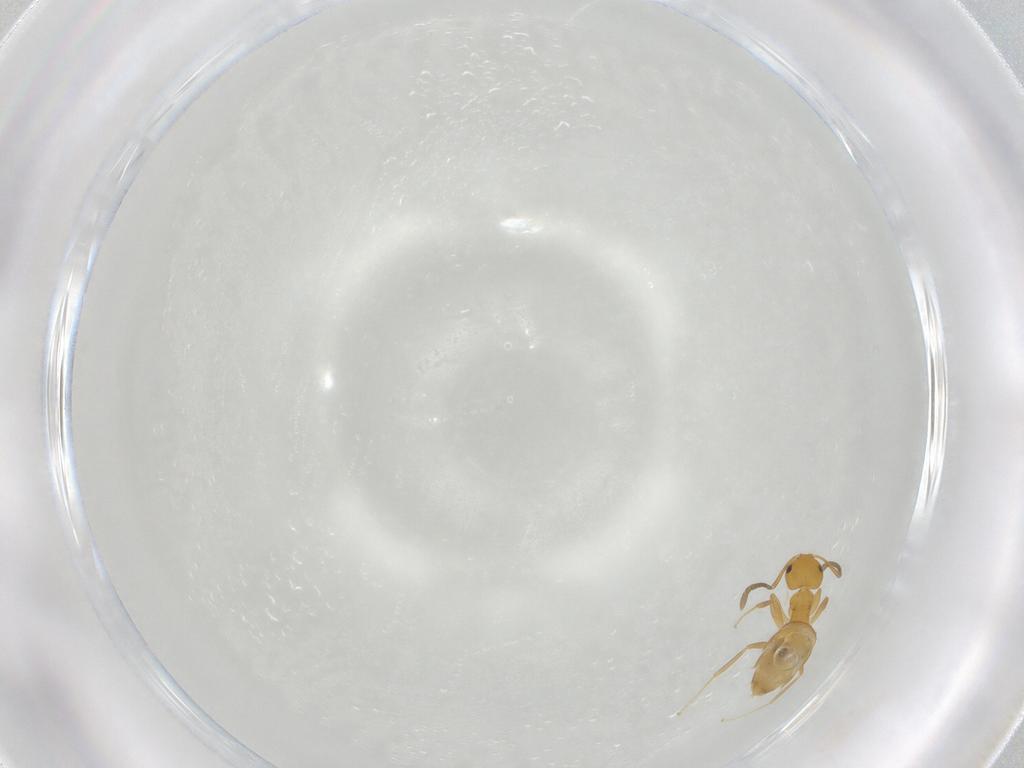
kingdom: Animalia
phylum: Arthropoda
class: Insecta
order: Hymenoptera
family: Formicidae
